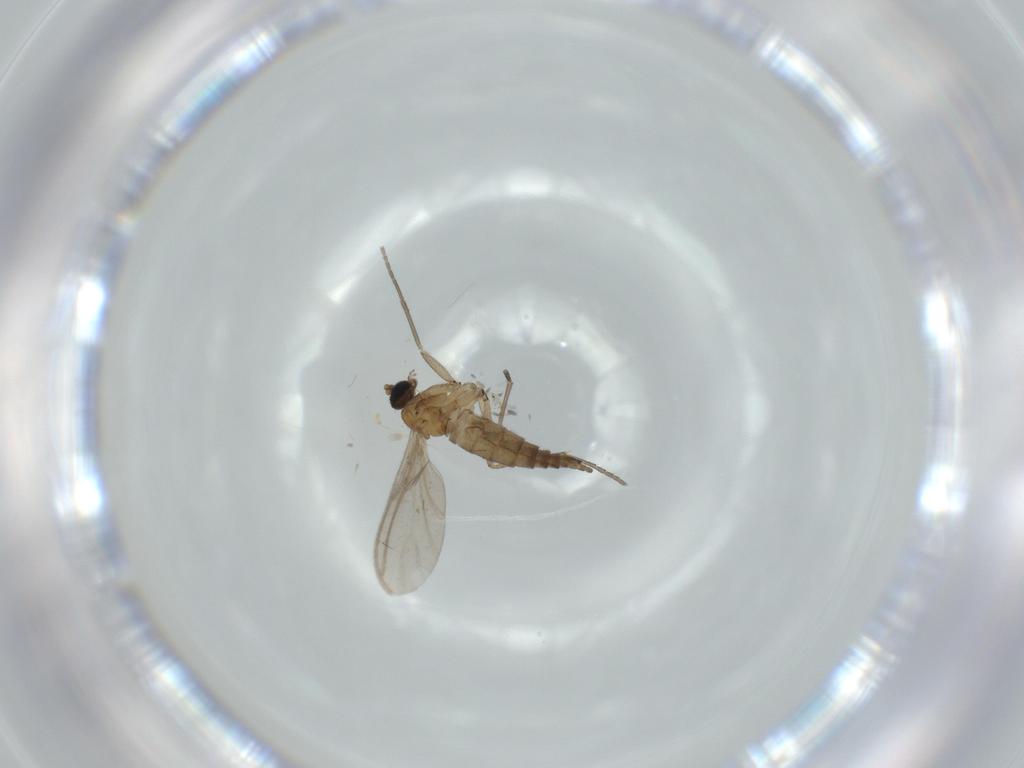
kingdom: Animalia
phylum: Arthropoda
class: Insecta
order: Diptera
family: Sciaridae
